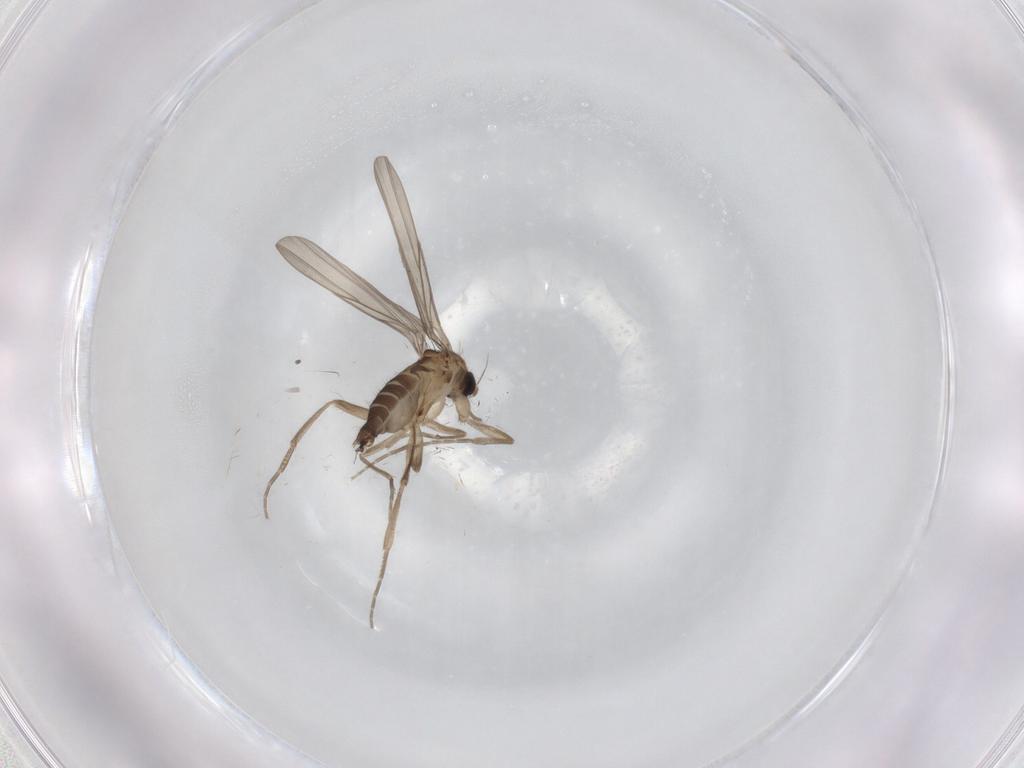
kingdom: Animalia
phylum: Arthropoda
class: Insecta
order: Diptera
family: Phoridae
